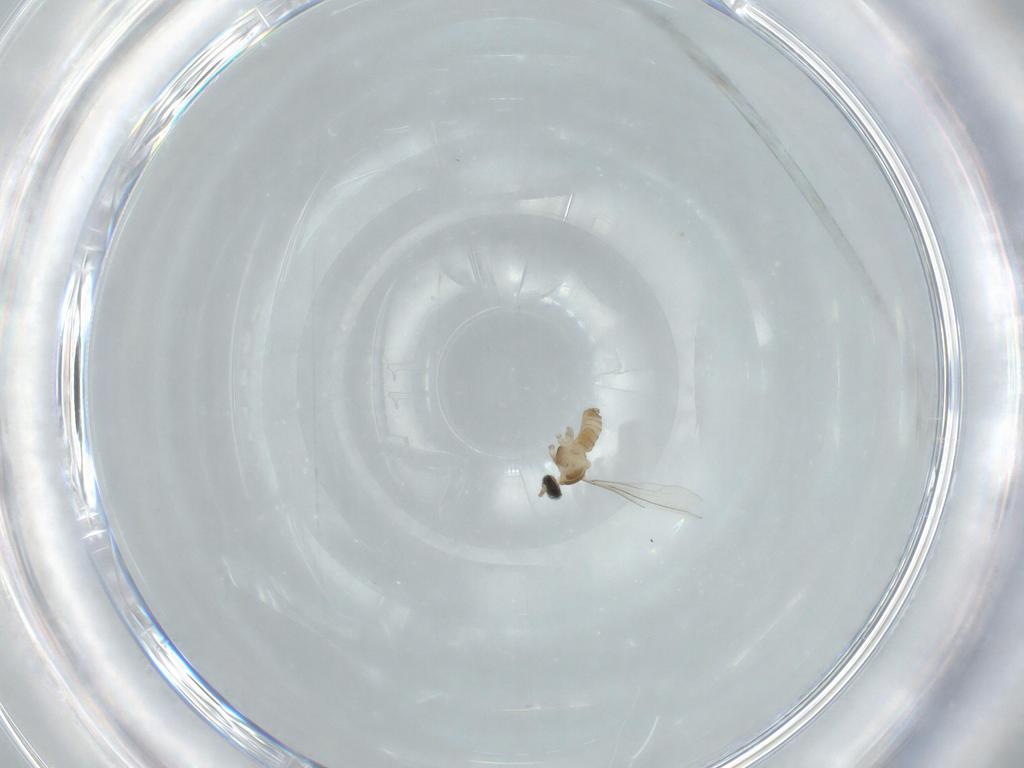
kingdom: Animalia
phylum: Arthropoda
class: Insecta
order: Diptera
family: Cecidomyiidae
